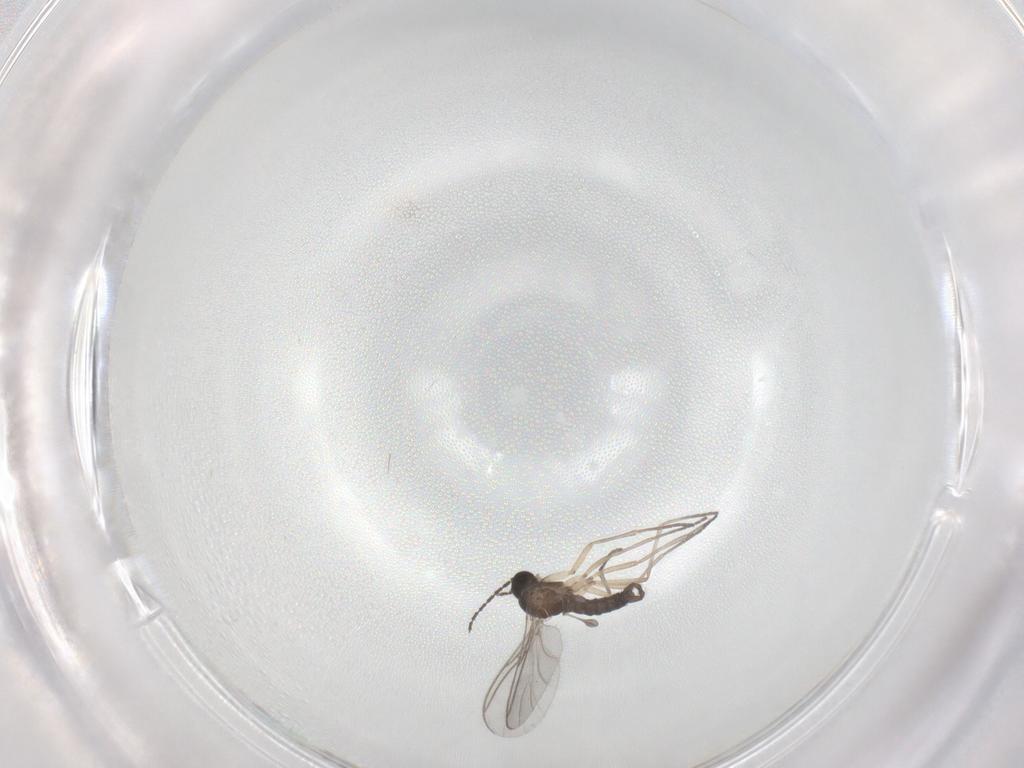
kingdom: Animalia
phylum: Arthropoda
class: Insecta
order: Diptera
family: Sciaridae
